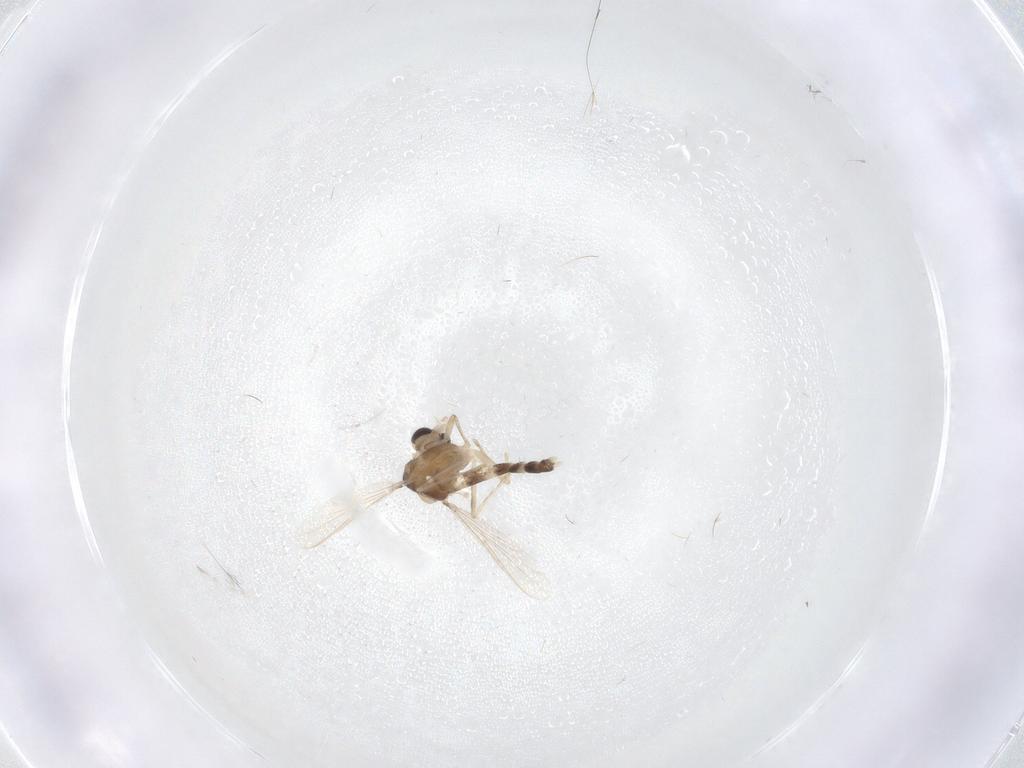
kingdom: Animalia
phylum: Arthropoda
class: Insecta
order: Diptera
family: Chironomidae
